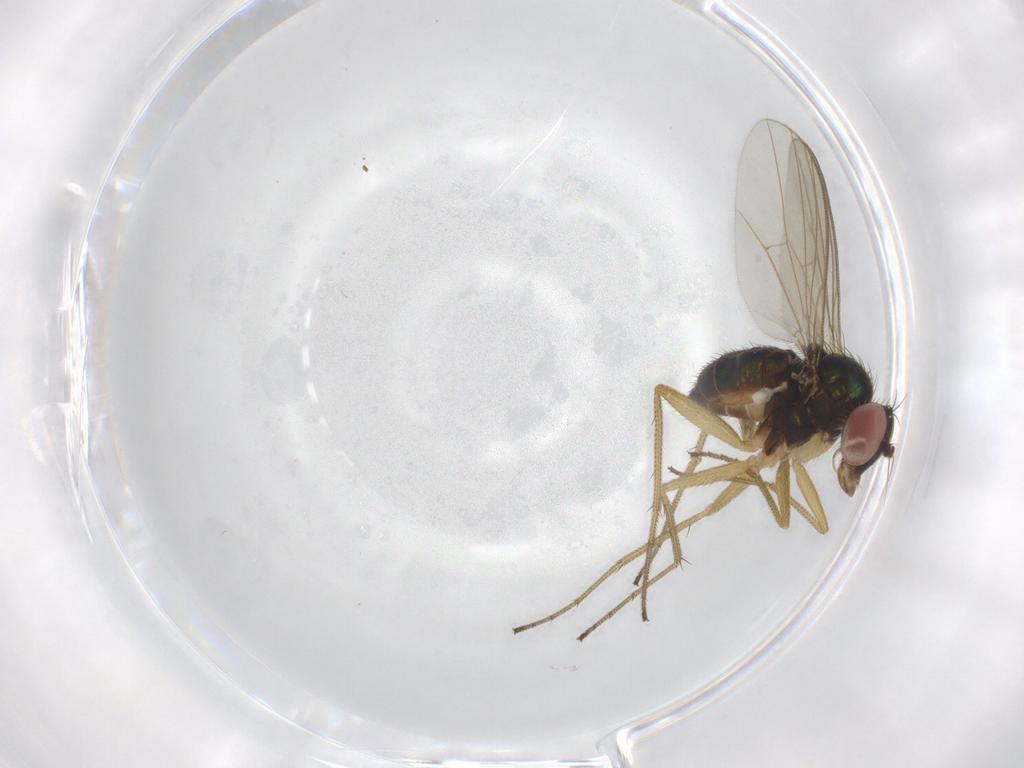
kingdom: Animalia
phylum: Arthropoda
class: Insecta
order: Diptera
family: Dolichopodidae
